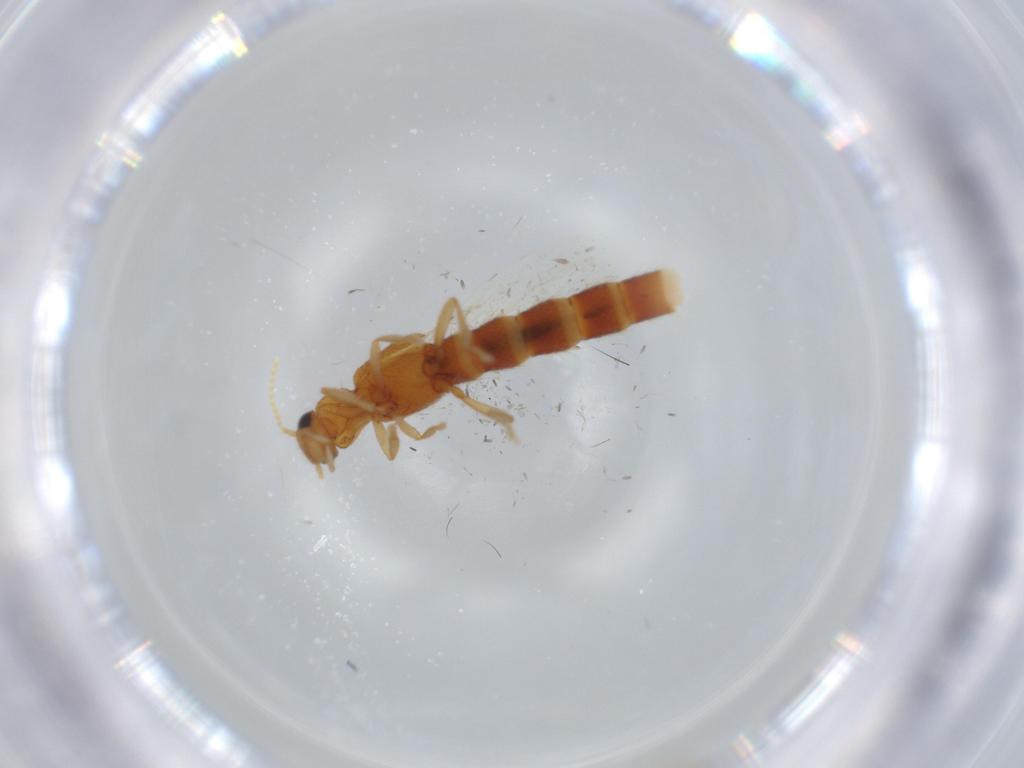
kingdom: Animalia
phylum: Arthropoda
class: Insecta
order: Coleoptera
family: Staphylinidae
